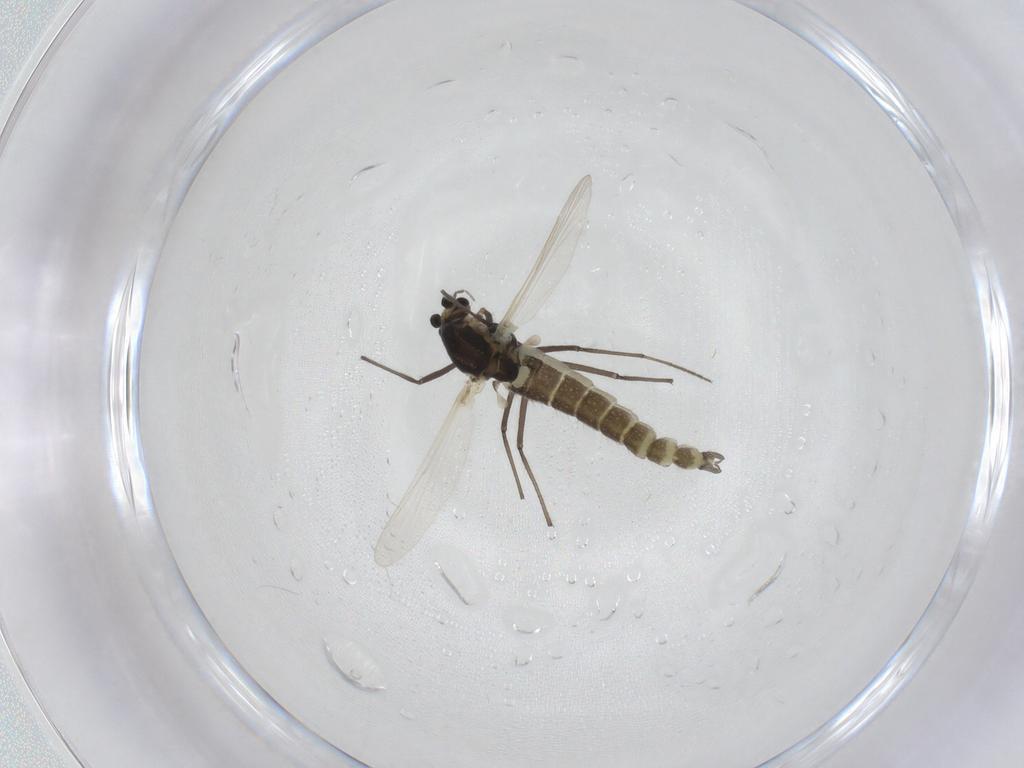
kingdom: Animalia
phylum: Arthropoda
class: Insecta
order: Diptera
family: Chironomidae
